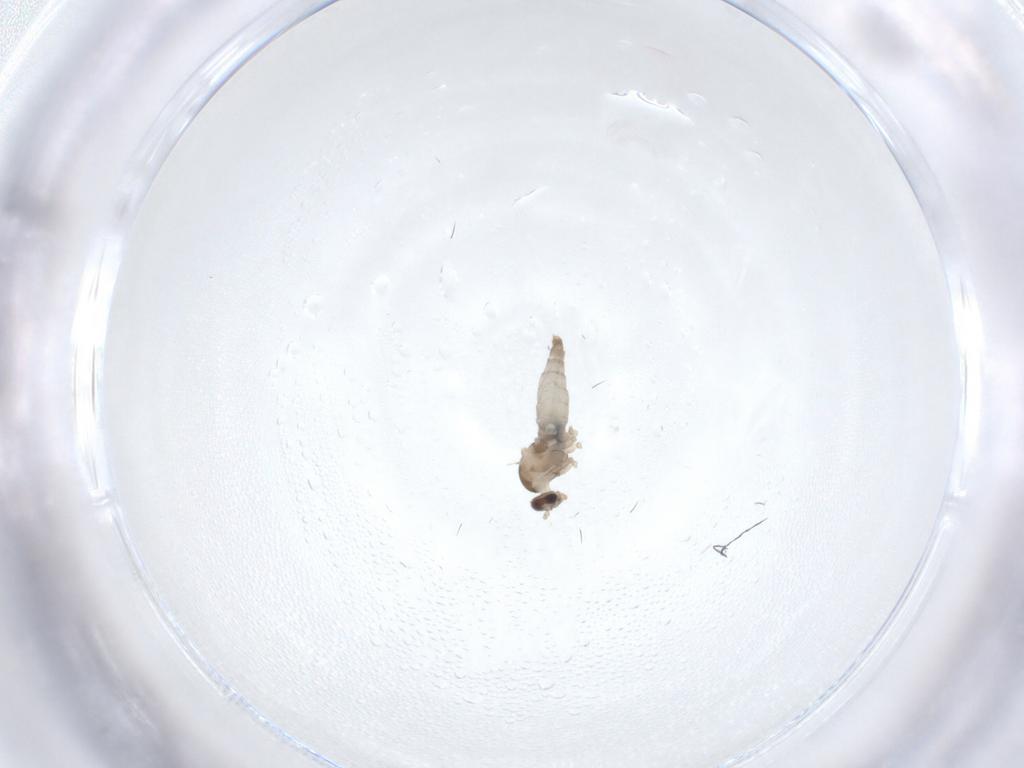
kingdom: Animalia
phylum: Arthropoda
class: Insecta
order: Diptera
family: Cecidomyiidae
